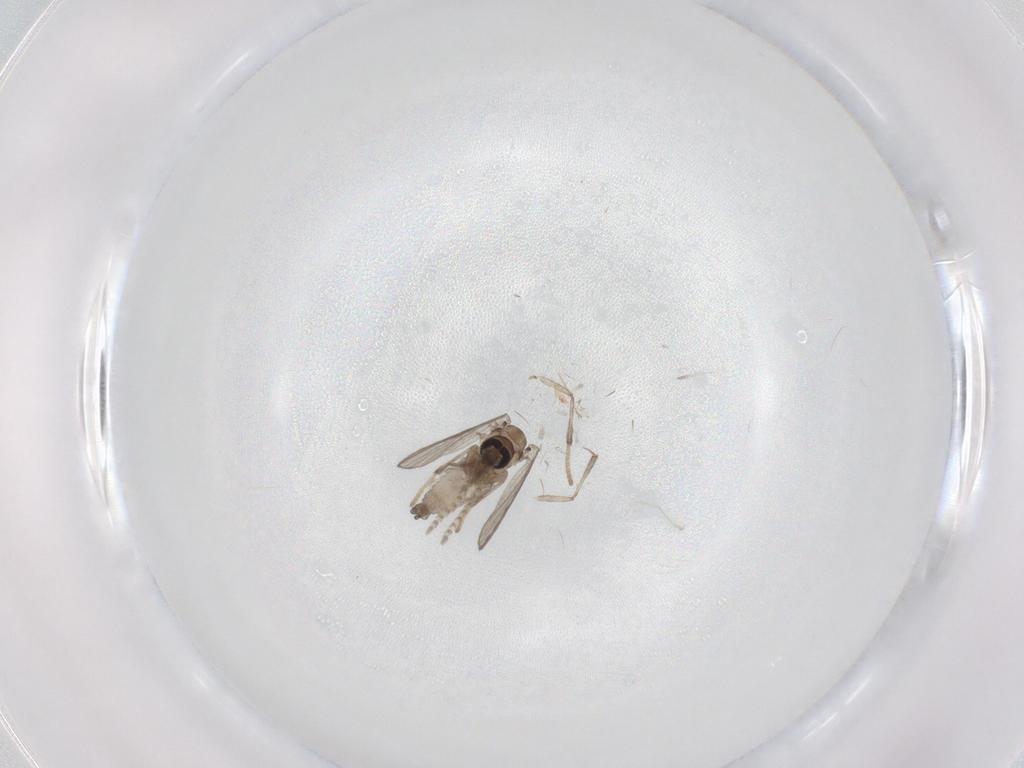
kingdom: Animalia
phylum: Arthropoda
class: Insecta
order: Diptera
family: Psychodidae
